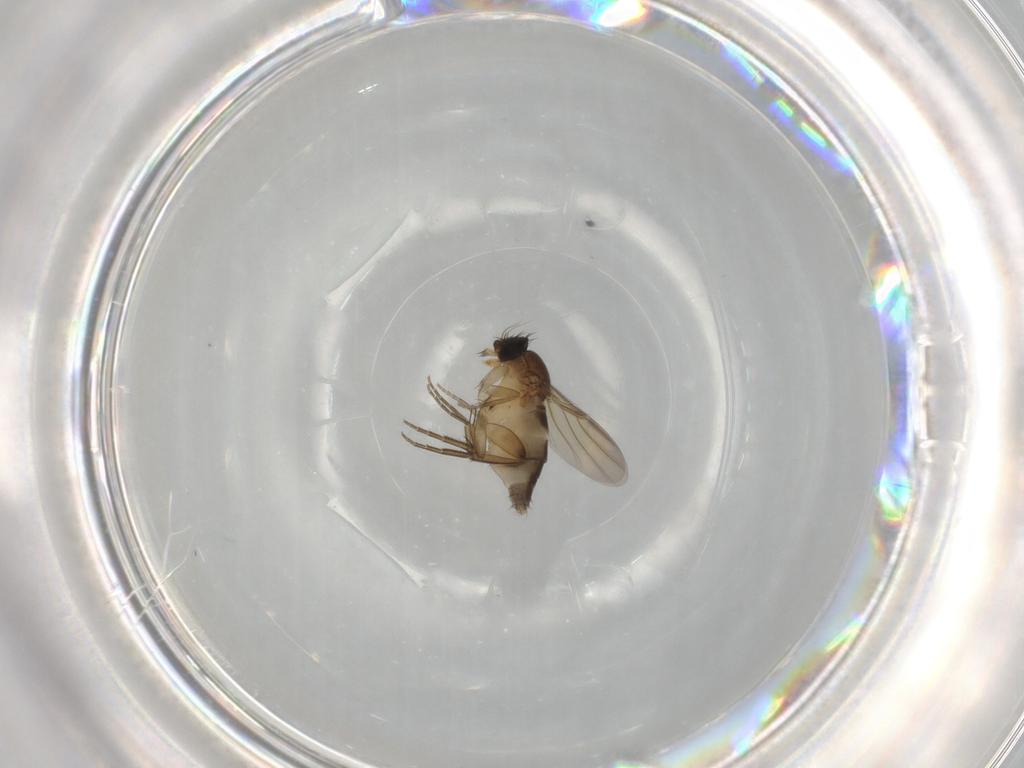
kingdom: Animalia
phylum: Arthropoda
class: Insecta
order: Diptera
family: Phoridae
